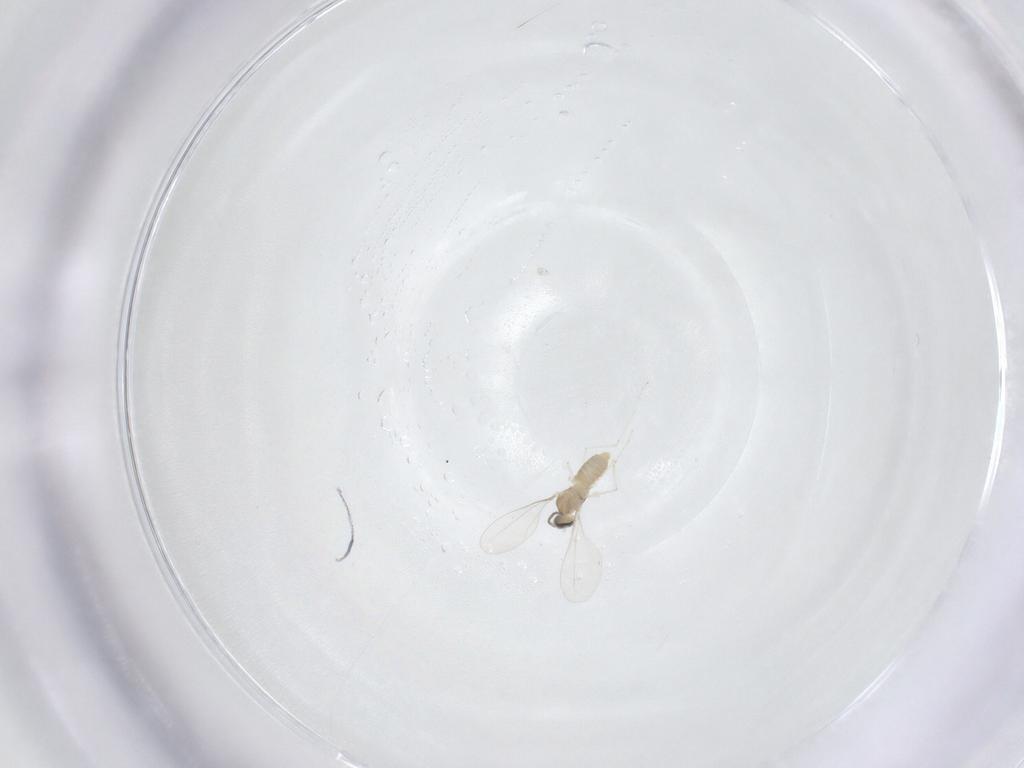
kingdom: Animalia
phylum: Arthropoda
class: Insecta
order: Diptera
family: Cecidomyiidae
